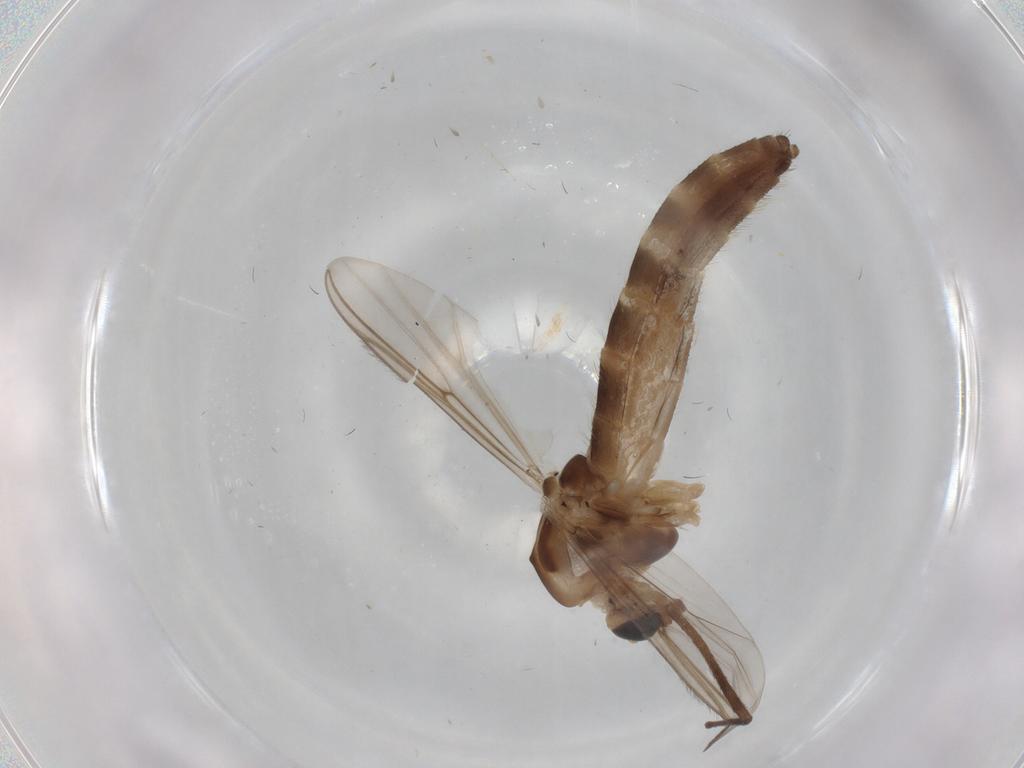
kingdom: Animalia
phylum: Arthropoda
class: Insecta
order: Diptera
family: Chironomidae
